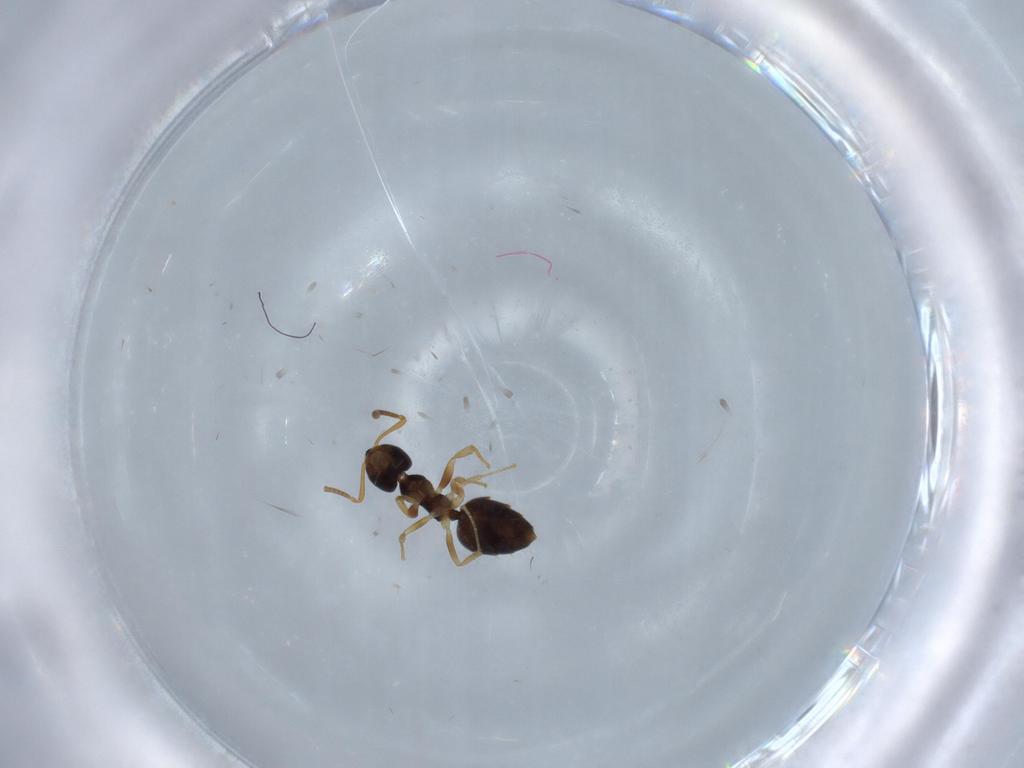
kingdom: Animalia
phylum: Arthropoda
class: Insecta
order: Hymenoptera
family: Formicidae
